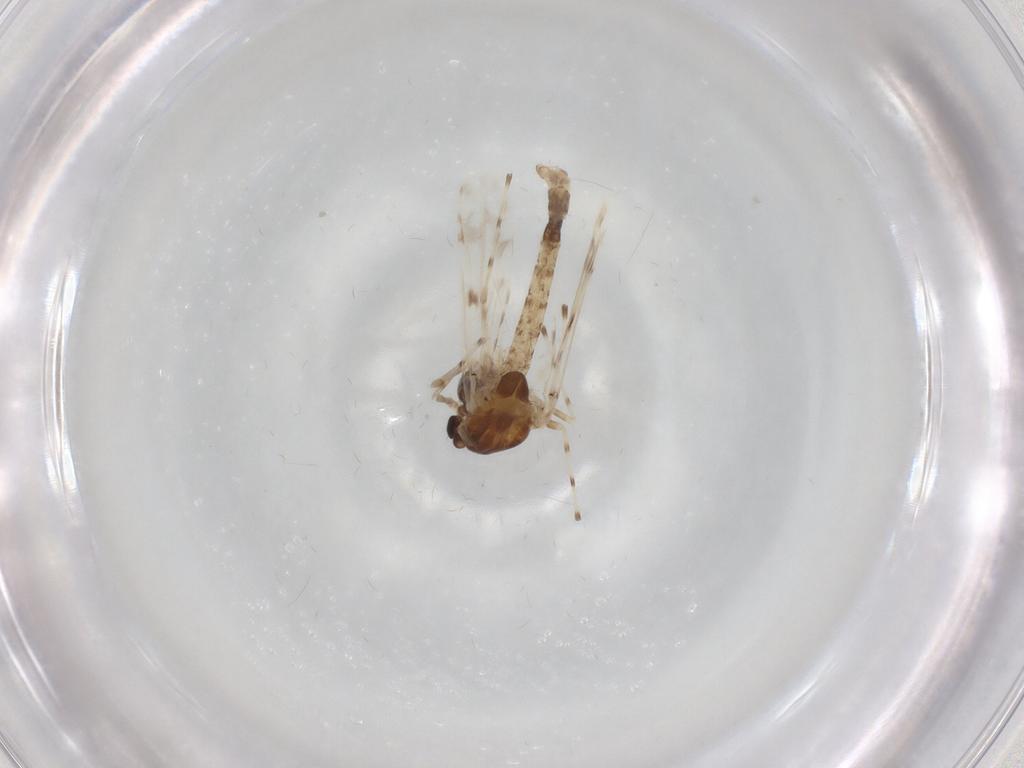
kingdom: Animalia
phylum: Arthropoda
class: Insecta
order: Diptera
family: Chironomidae
